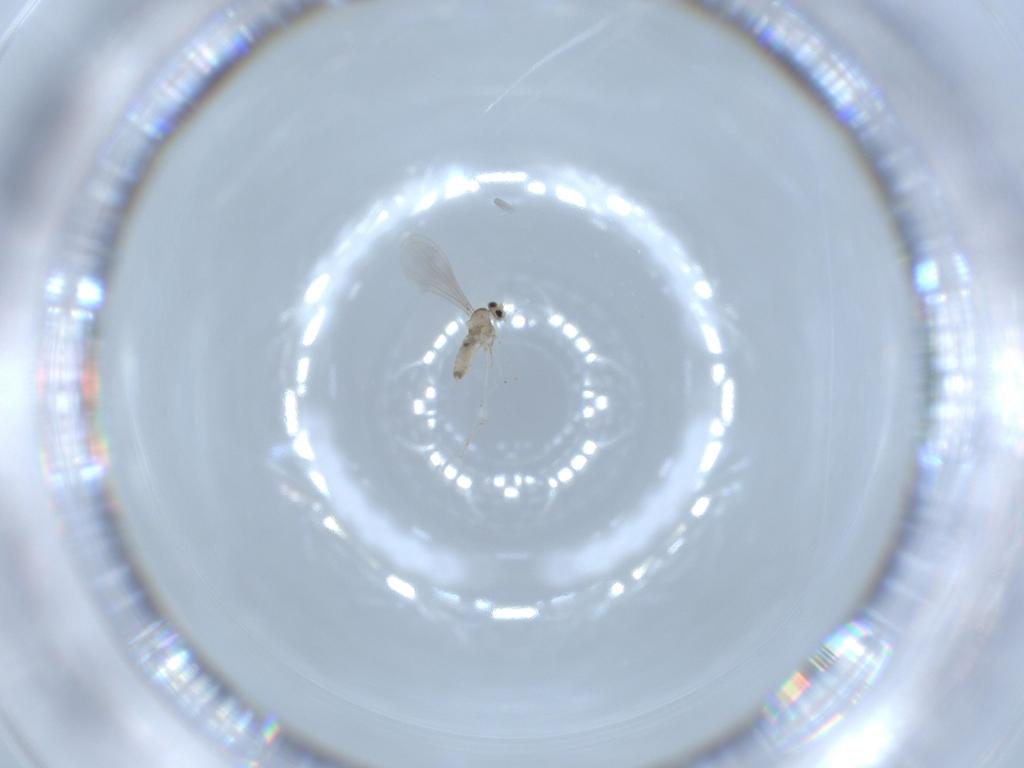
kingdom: Animalia
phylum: Arthropoda
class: Insecta
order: Diptera
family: Cecidomyiidae
